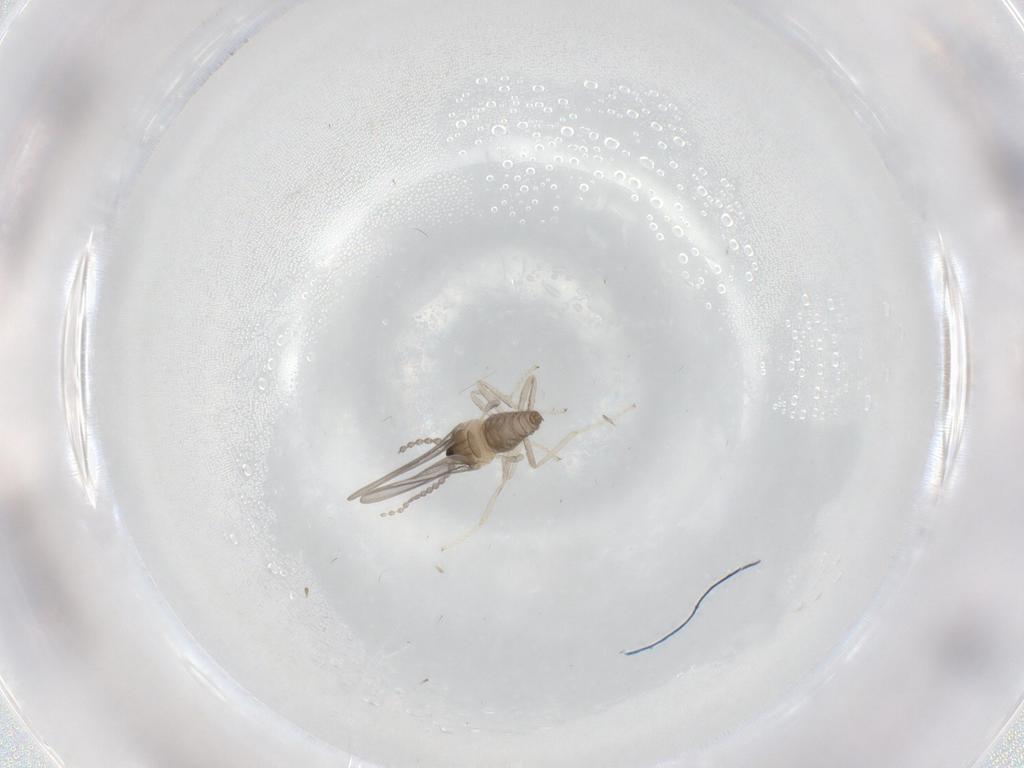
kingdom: Animalia
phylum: Arthropoda
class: Insecta
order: Diptera
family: Cecidomyiidae
